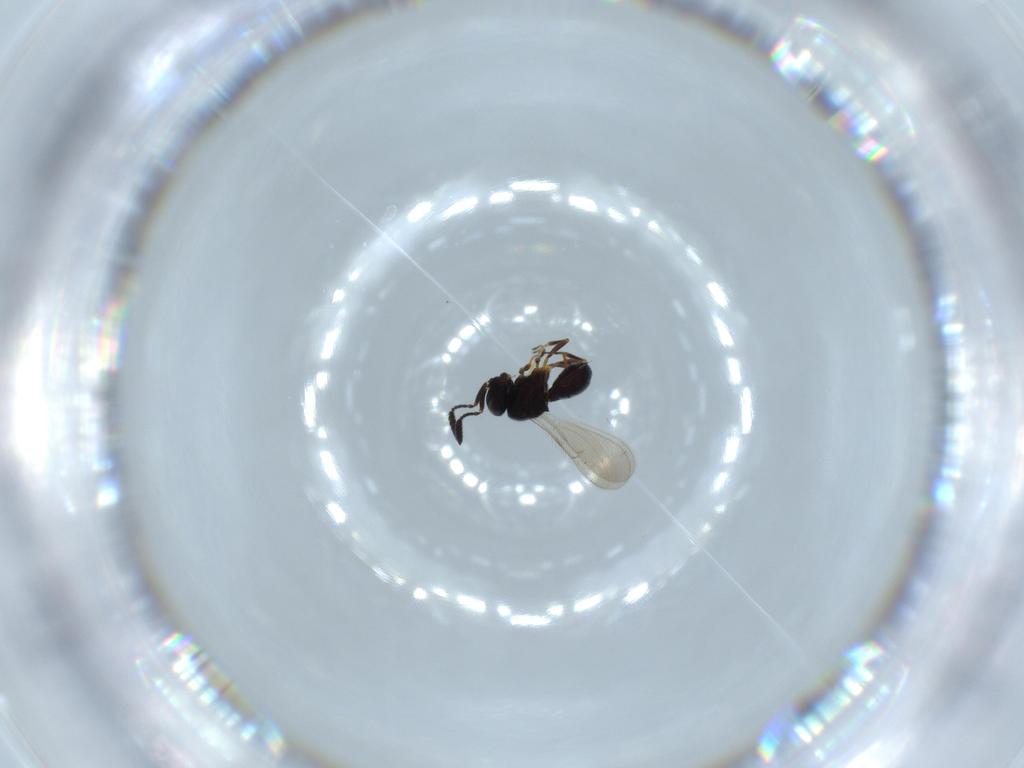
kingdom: Animalia
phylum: Arthropoda
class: Insecta
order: Hymenoptera
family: Scelionidae
